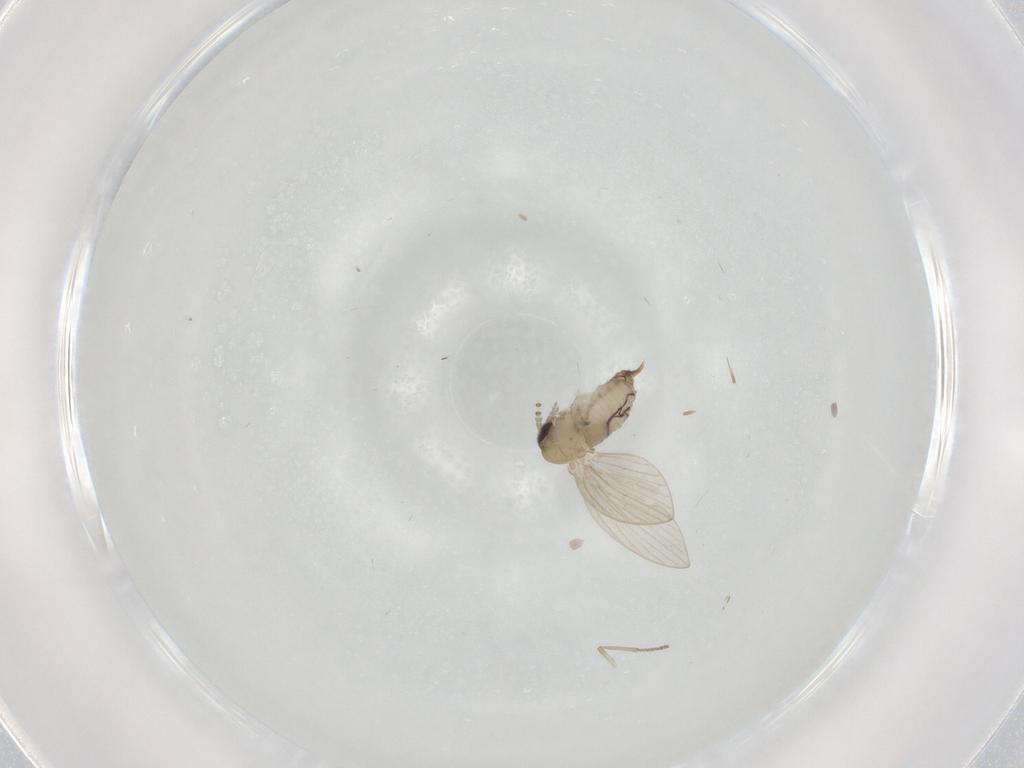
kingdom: Animalia
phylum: Arthropoda
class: Insecta
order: Diptera
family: Psychodidae
